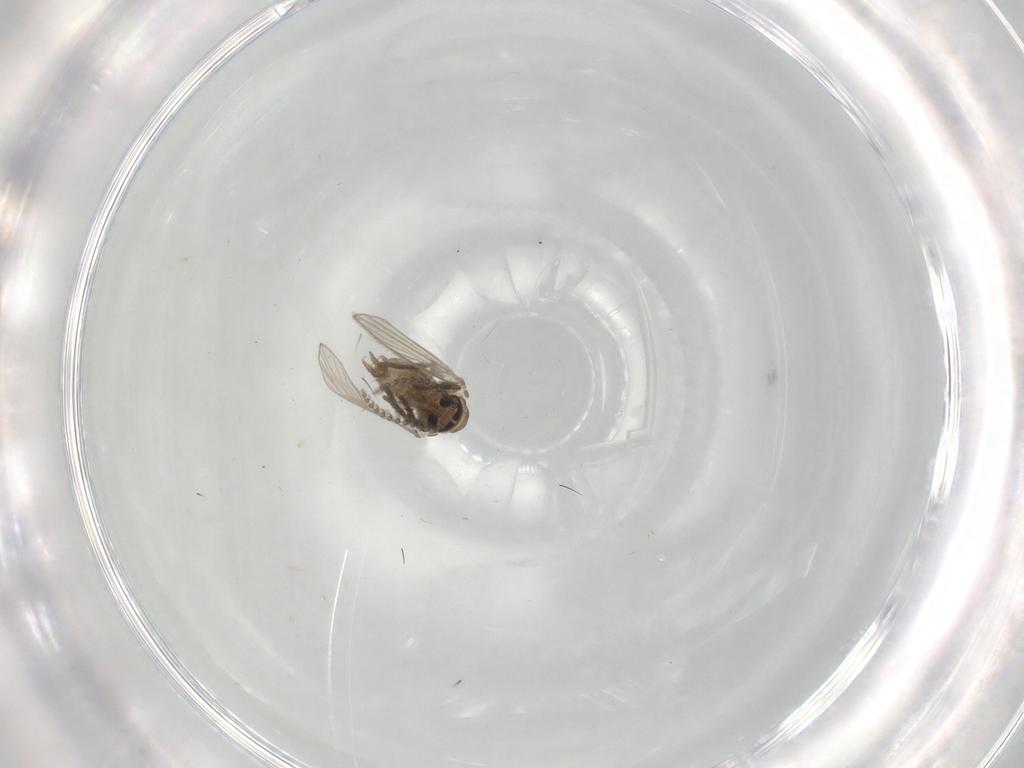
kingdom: Animalia
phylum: Arthropoda
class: Insecta
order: Diptera
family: Psychodidae
